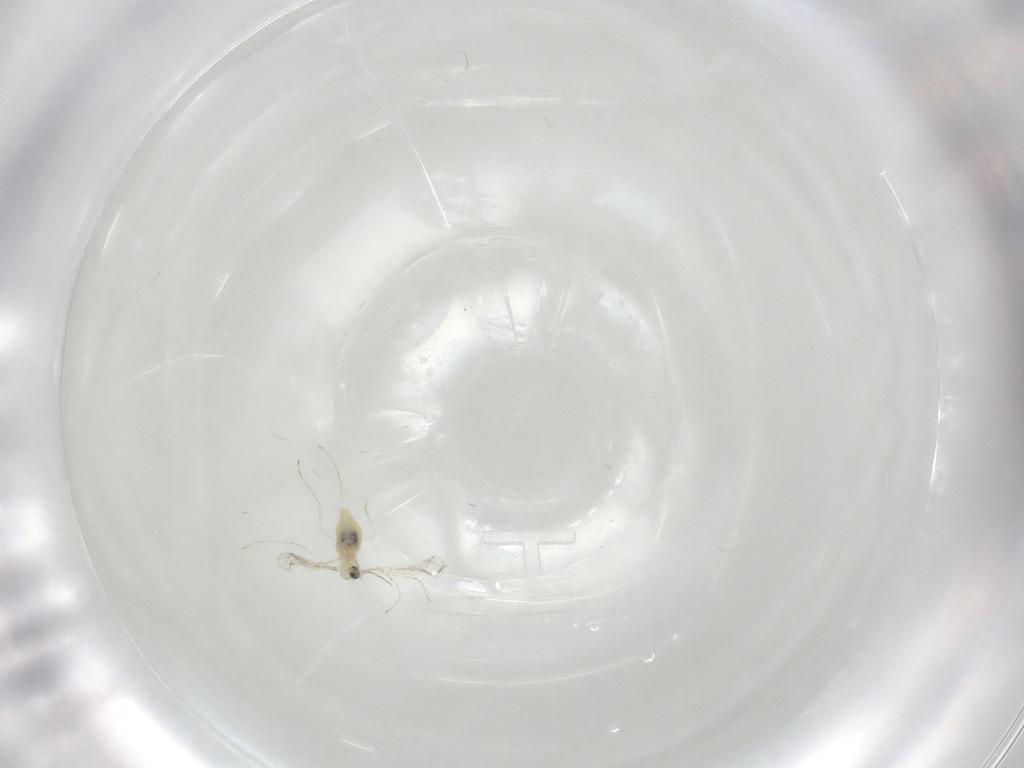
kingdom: Animalia
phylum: Arthropoda
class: Insecta
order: Diptera
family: Cecidomyiidae
